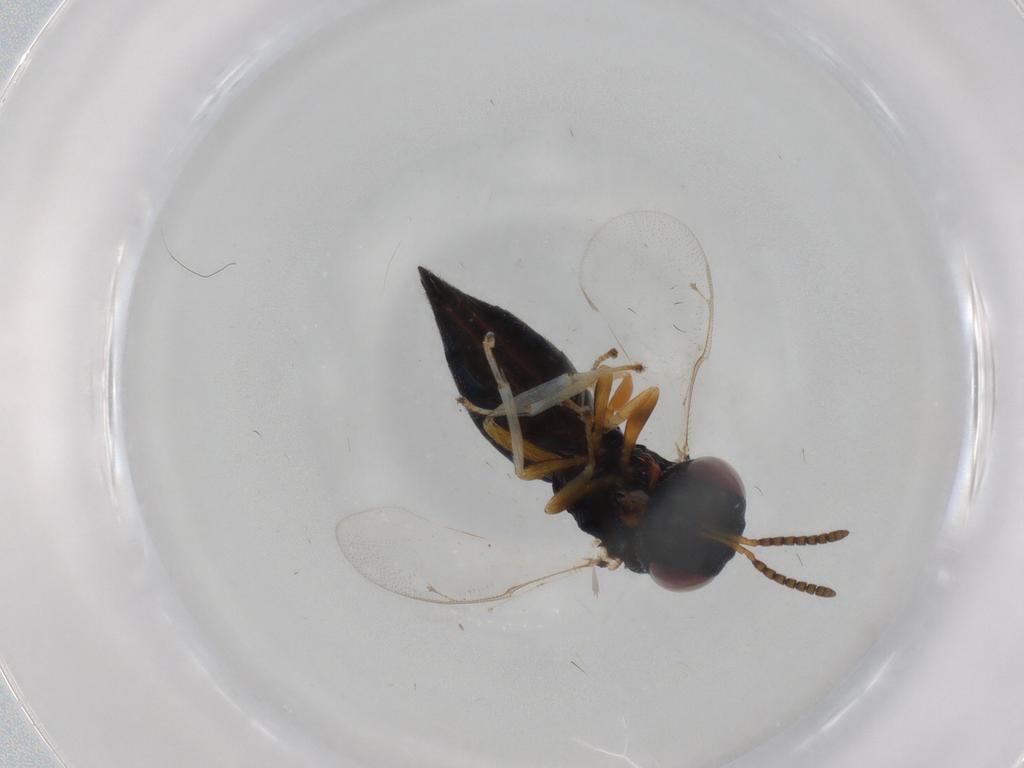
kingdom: Animalia
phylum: Arthropoda
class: Insecta
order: Hymenoptera
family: Pteromalidae
